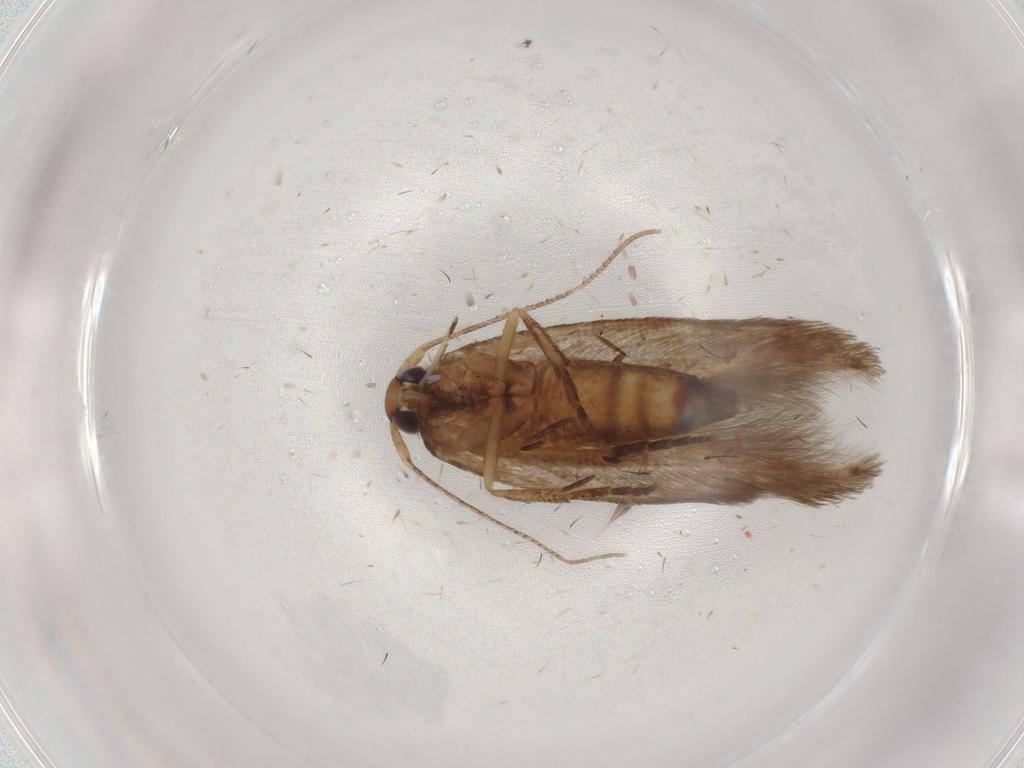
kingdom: Animalia
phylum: Arthropoda
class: Insecta
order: Lepidoptera
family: Cosmopterigidae
